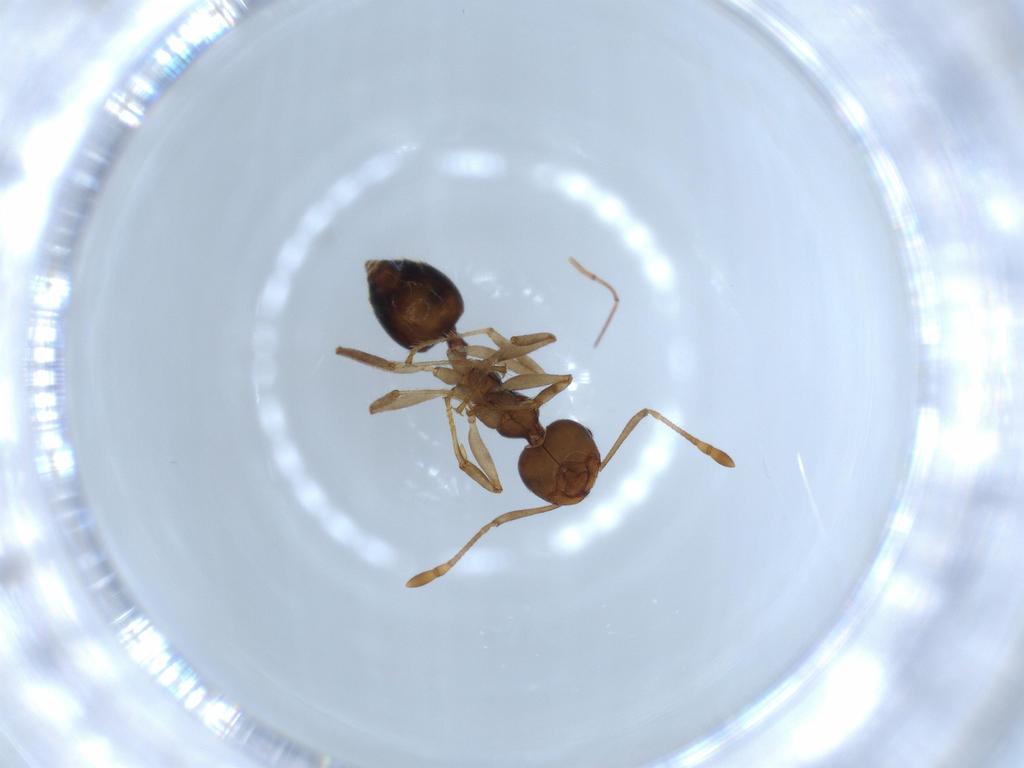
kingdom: Animalia
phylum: Arthropoda
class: Insecta
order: Hymenoptera
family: Formicidae
